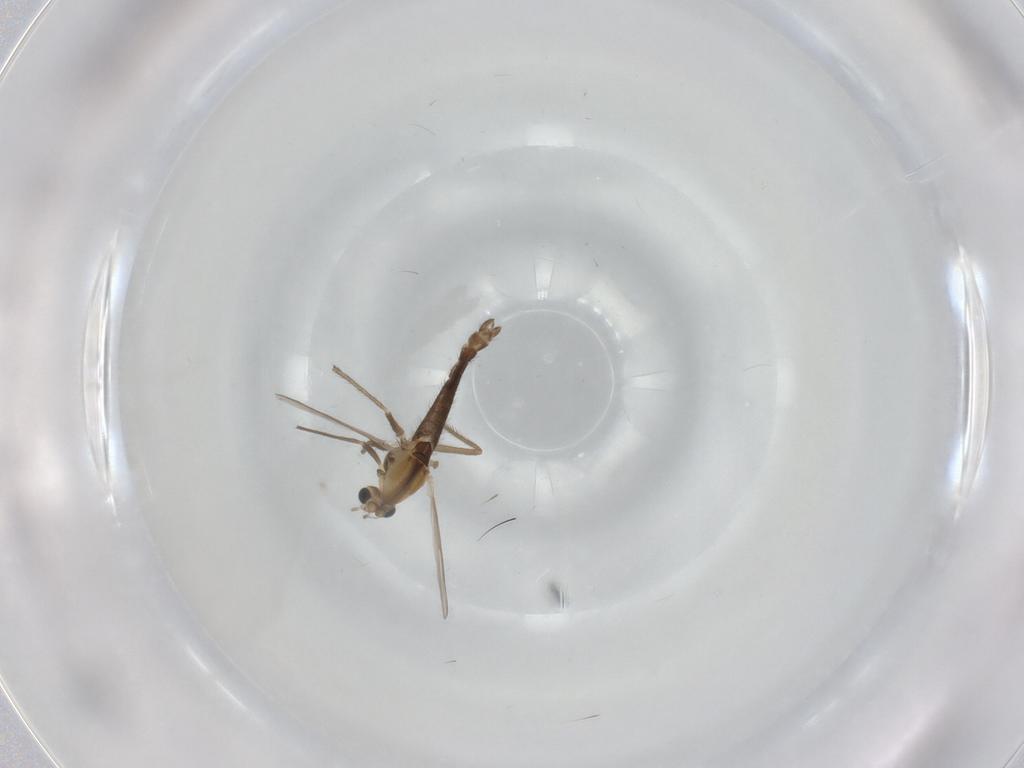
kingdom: Animalia
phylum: Arthropoda
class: Insecta
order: Diptera
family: Chironomidae
